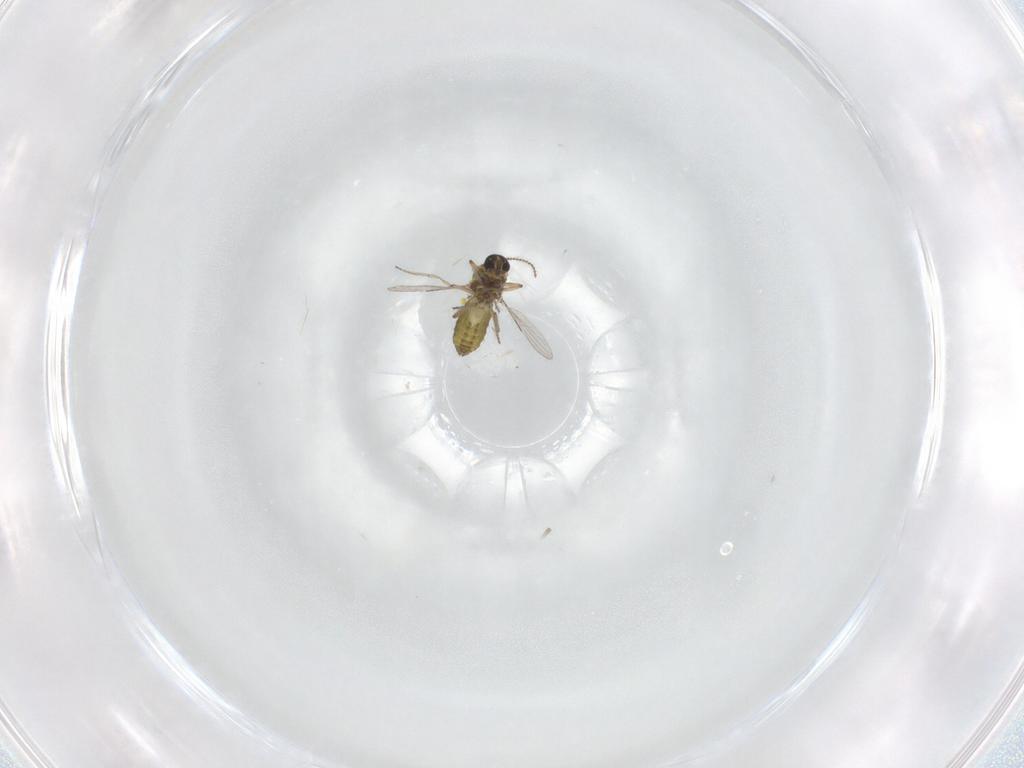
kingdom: Animalia
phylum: Arthropoda
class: Insecta
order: Diptera
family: Ceratopogonidae
